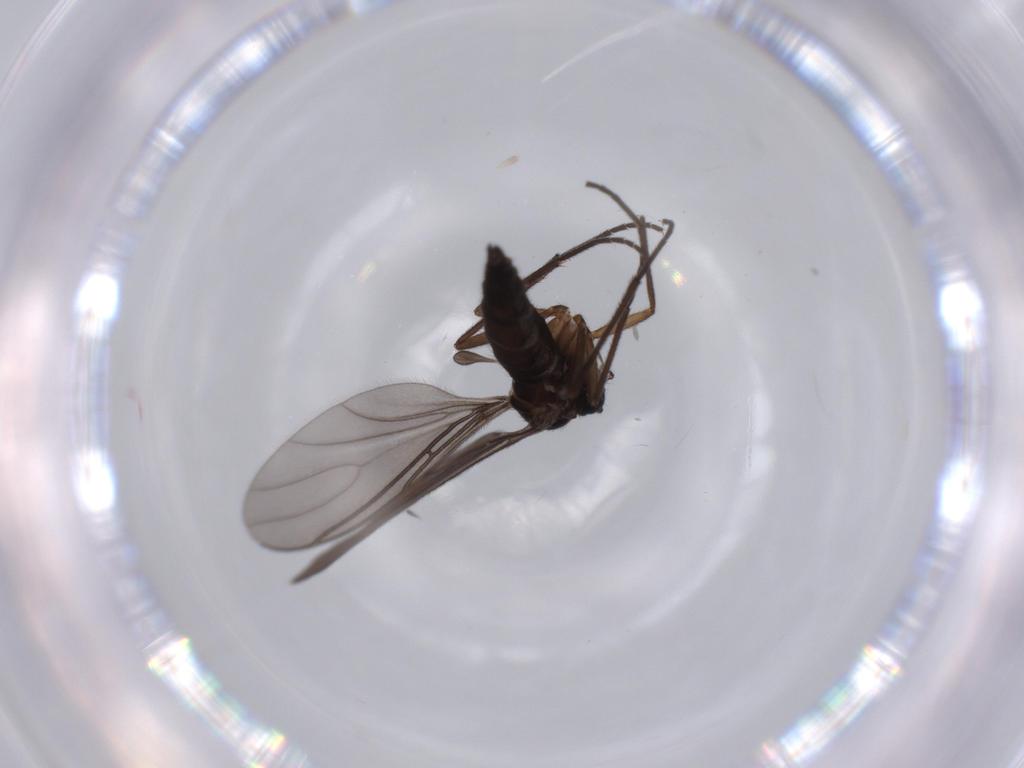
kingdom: Animalia
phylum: Arthropoda
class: Insecta
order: Diptera
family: Sciaridae
